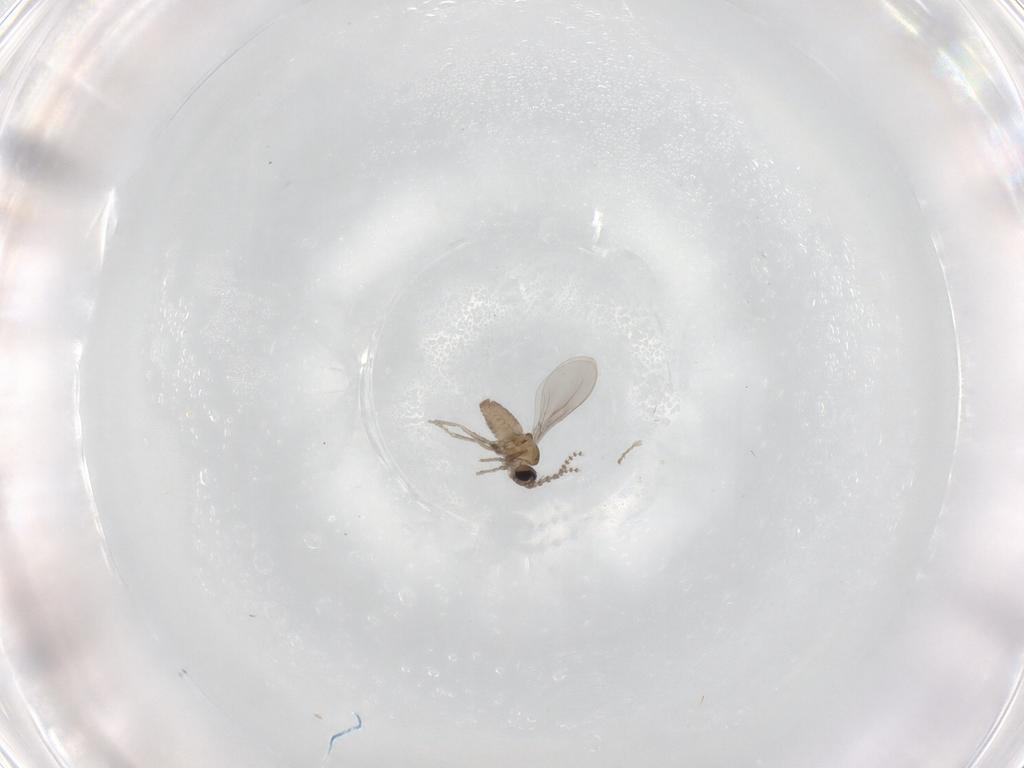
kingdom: Animalia
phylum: Arthropoda
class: Insecta
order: Diptera
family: Cecidomyiidae
